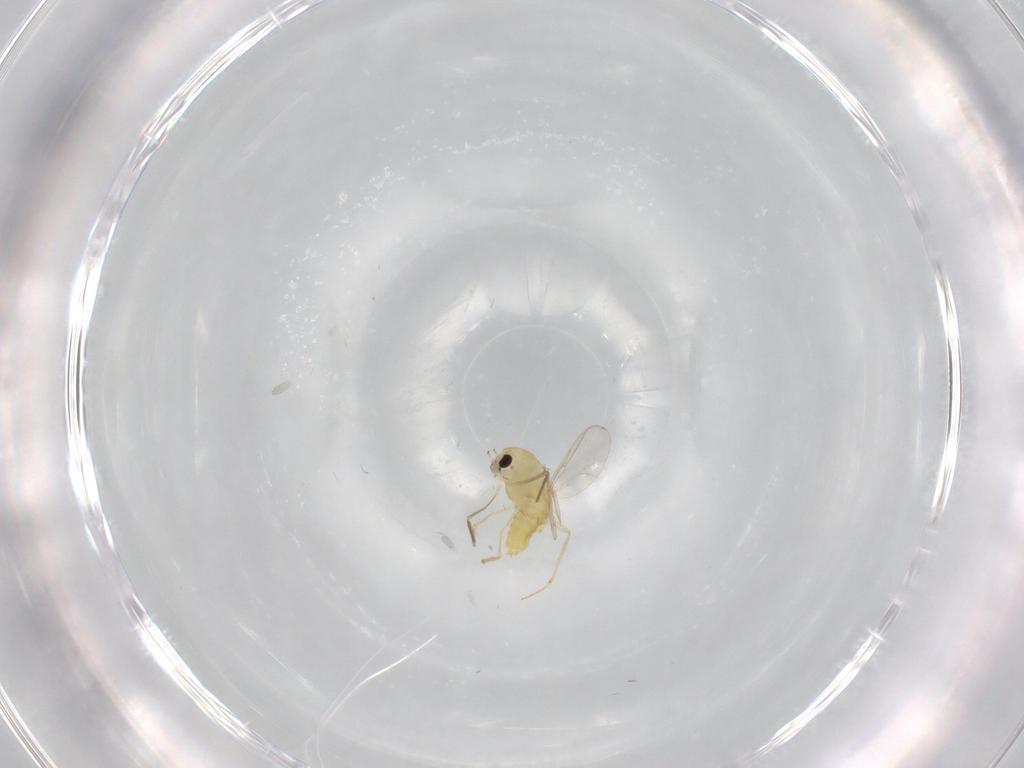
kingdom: Animalia
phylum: Arthropoda
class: Insecta
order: Diptera
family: Chironomidae
